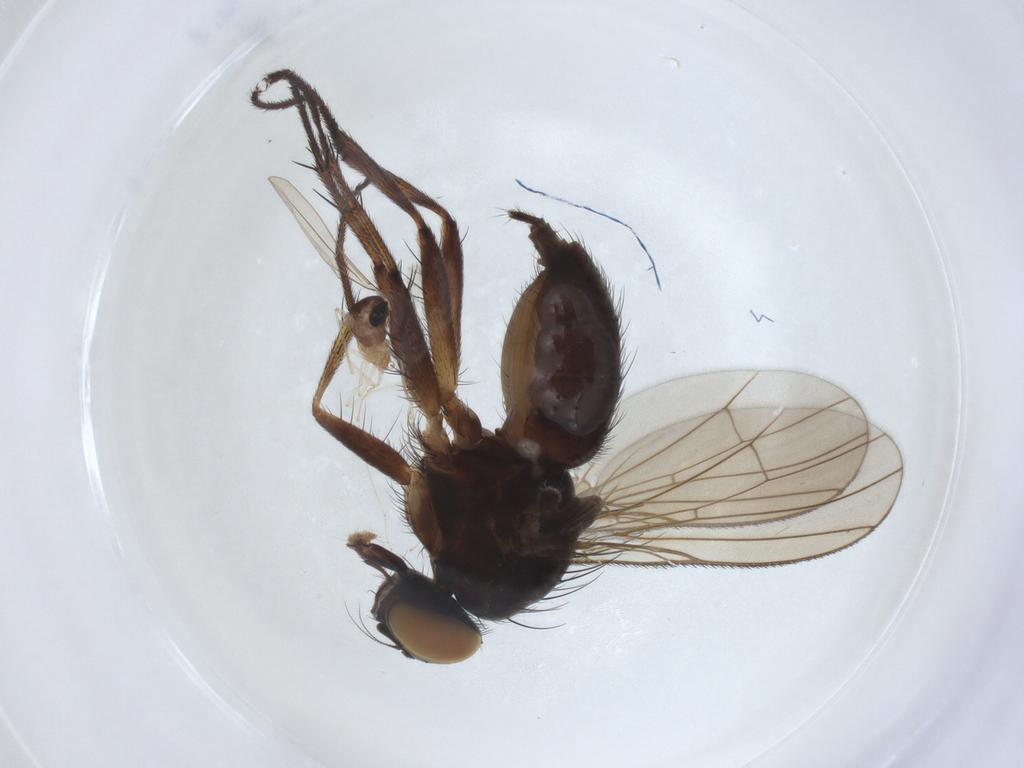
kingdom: Animalia
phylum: Arthropoda
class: Insecta
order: Diptera
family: Muscidae
